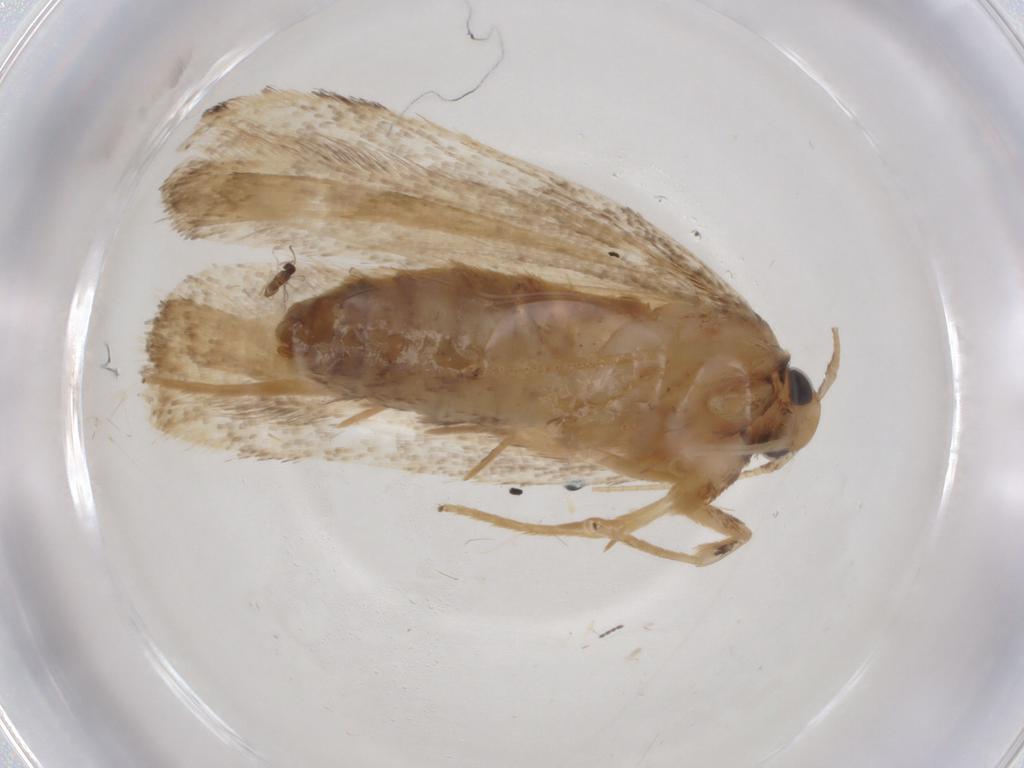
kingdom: Animalia
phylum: Arthropoda
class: Insecta
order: Lepidoptera
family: Lecithoceridae
